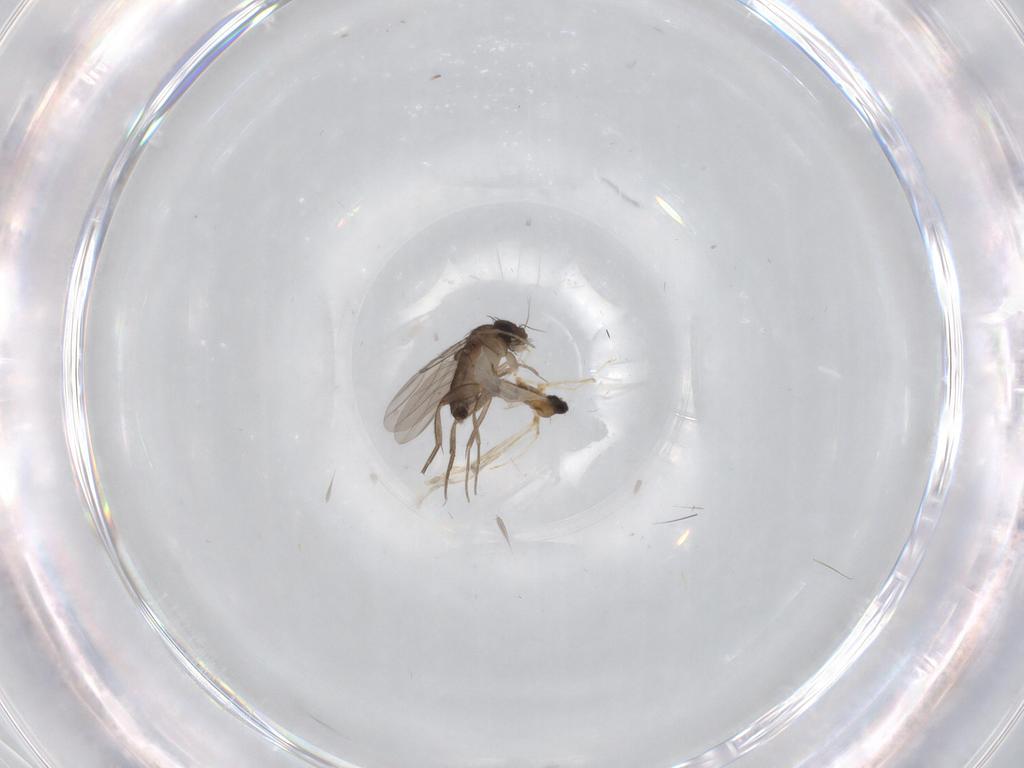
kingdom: Animalia
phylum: Arthropoda
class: Insecta
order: Diptera
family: Phoridae
